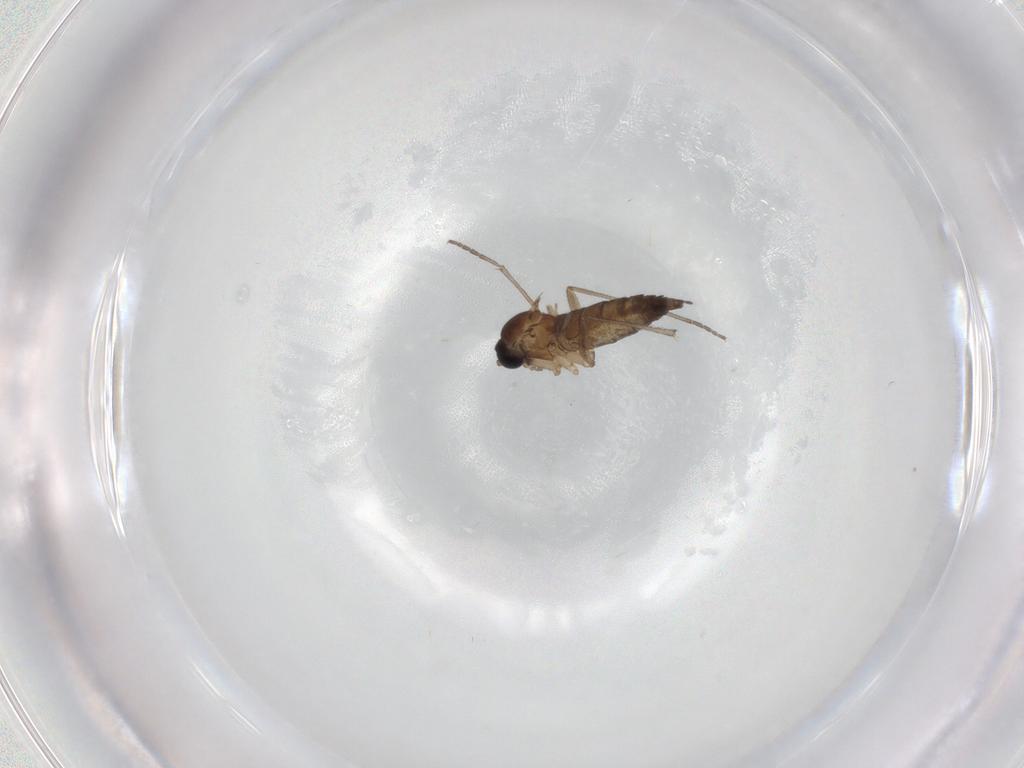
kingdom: Animalia
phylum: Arthropoda
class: Insecta
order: Diptera
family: Sciaridae
